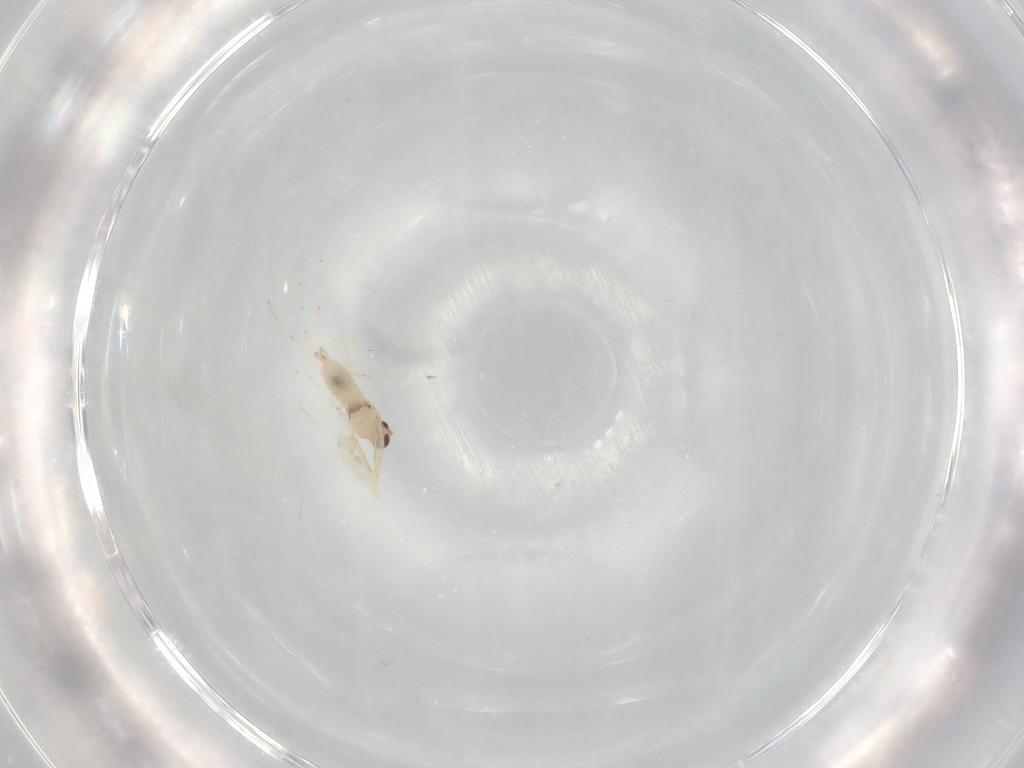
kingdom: Animalia
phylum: Arthropoda
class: Insecta
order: Diptera
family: Cecidomyiidae
